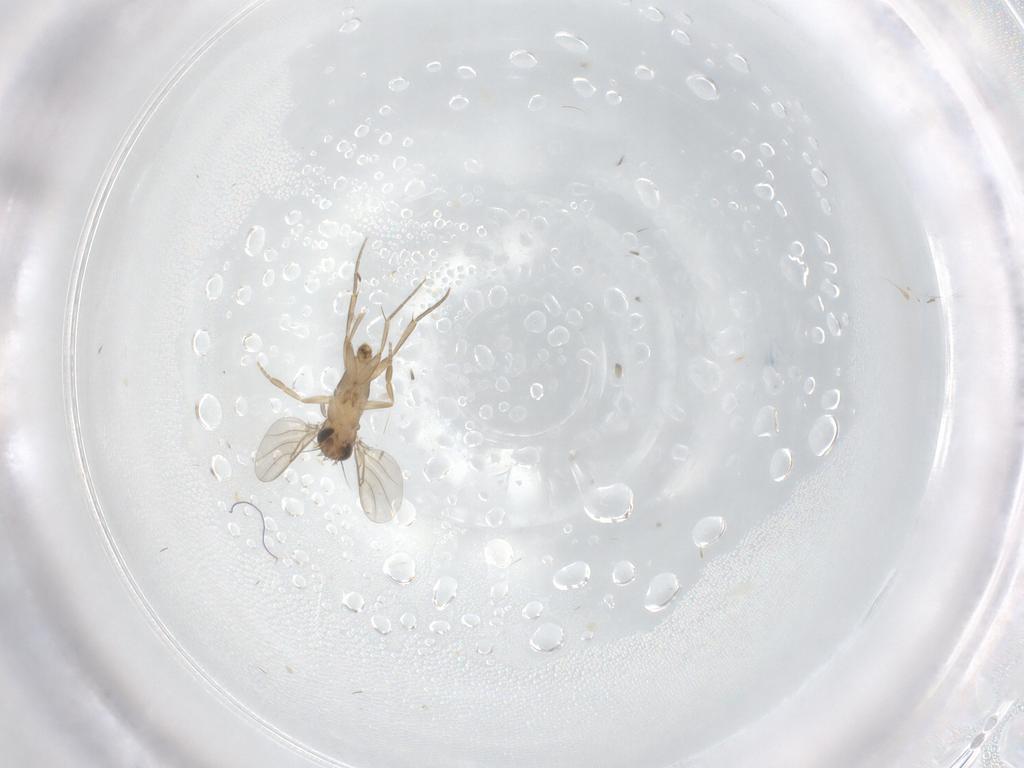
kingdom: Animalia
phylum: Arthropoda
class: Insecta
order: Diptera
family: Phoridae
